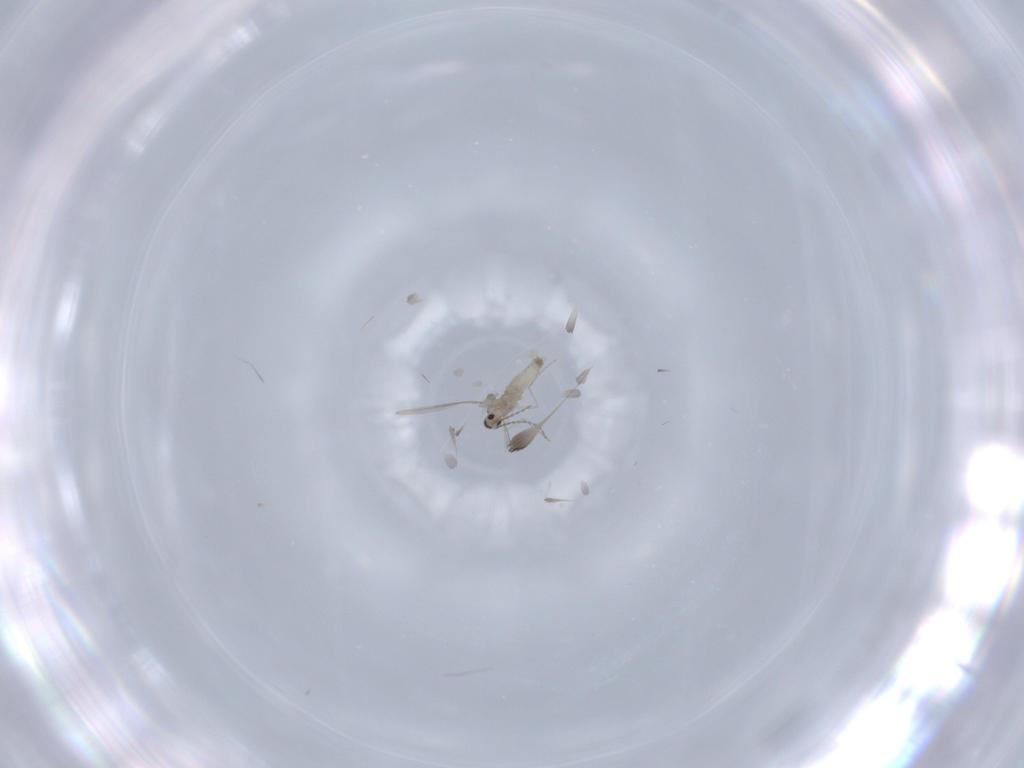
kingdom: Animalia
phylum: Arthropoda
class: Insecta
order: Diptera
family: Cecidomyiidae
